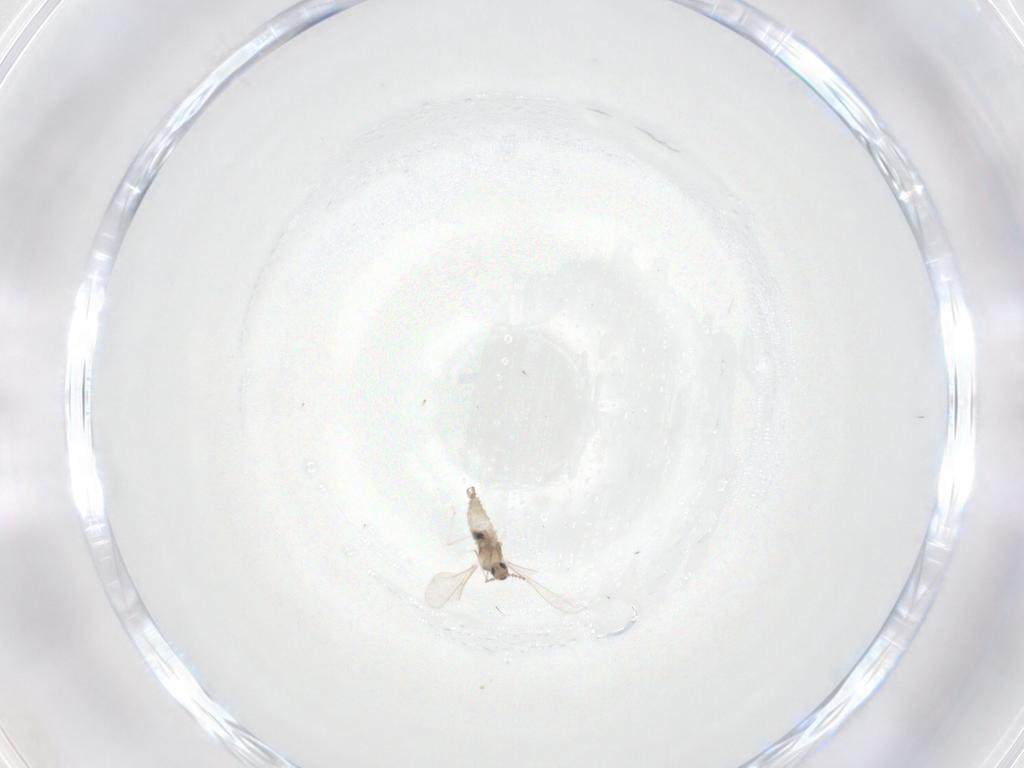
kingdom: Animalia
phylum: Arthropoda
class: Insecta
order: Diptera
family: Cecidomyiidae
